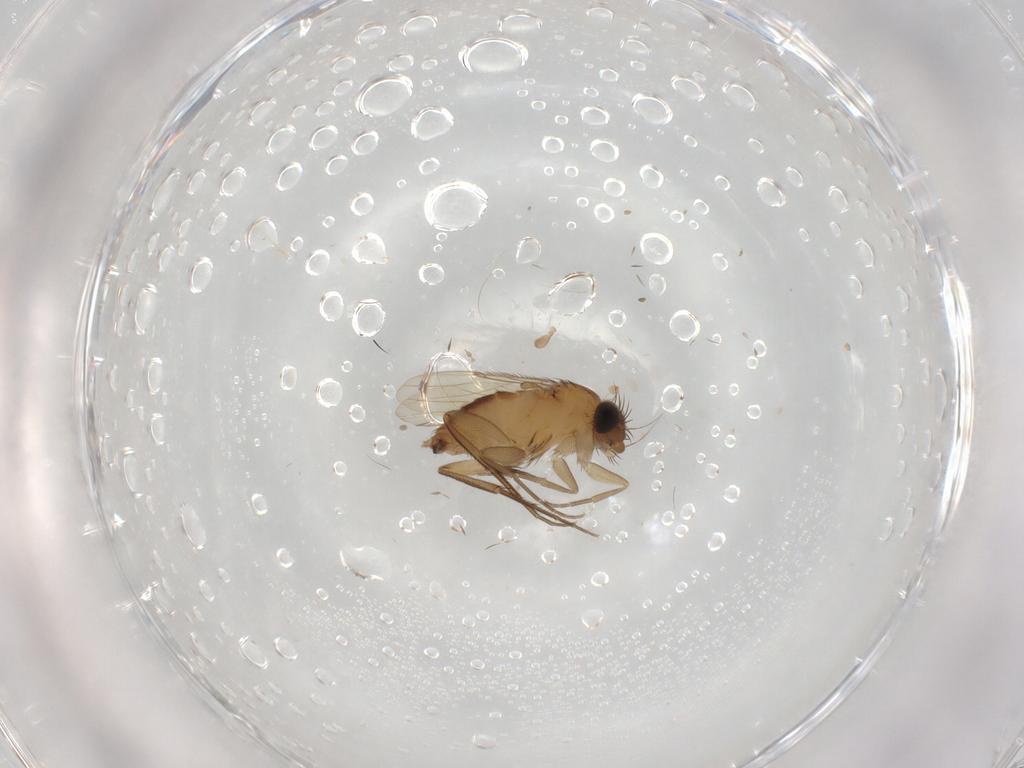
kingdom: Animalia
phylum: Arthropoda
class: Insecta
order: Diptera
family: Phoridae
